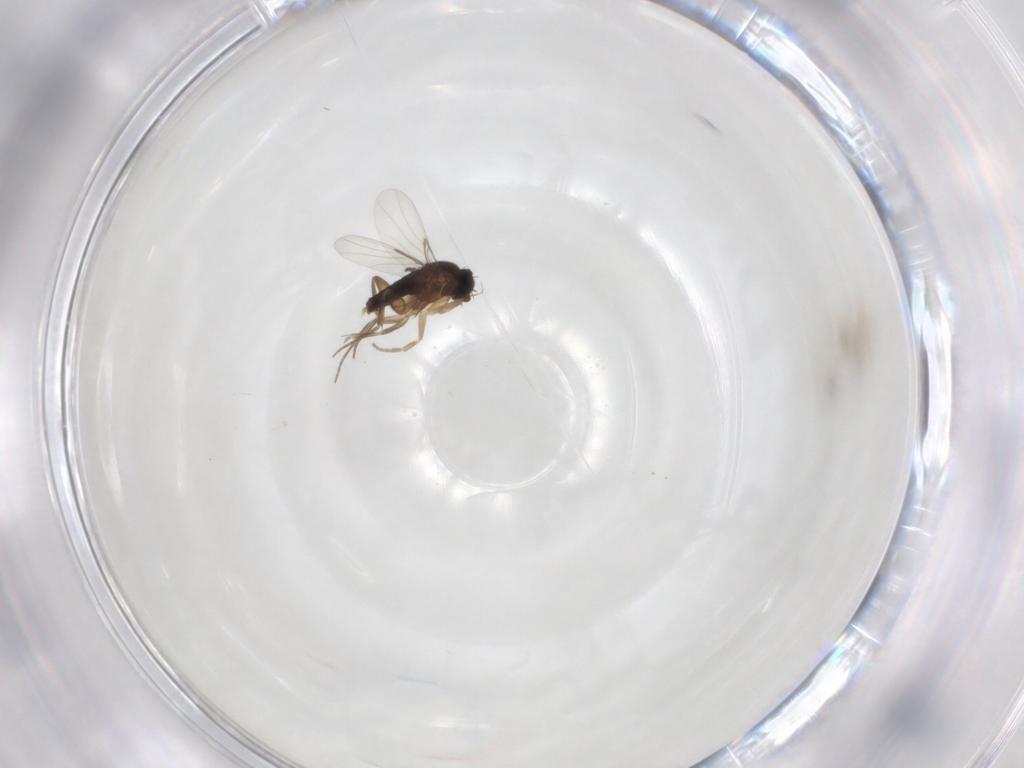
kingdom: Animalia
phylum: Arthropoda
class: Insecta
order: Diptera
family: Phoridae
